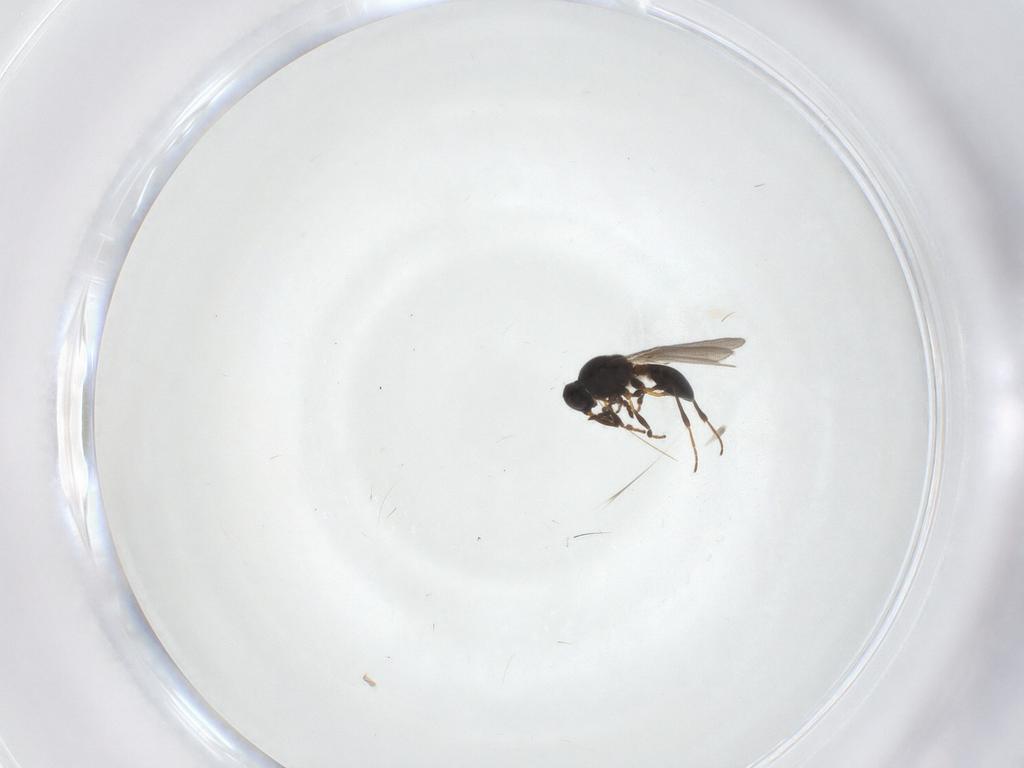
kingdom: Animalia
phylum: Arthropoda
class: Insecta
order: Hymenoptera
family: Platygastridae
